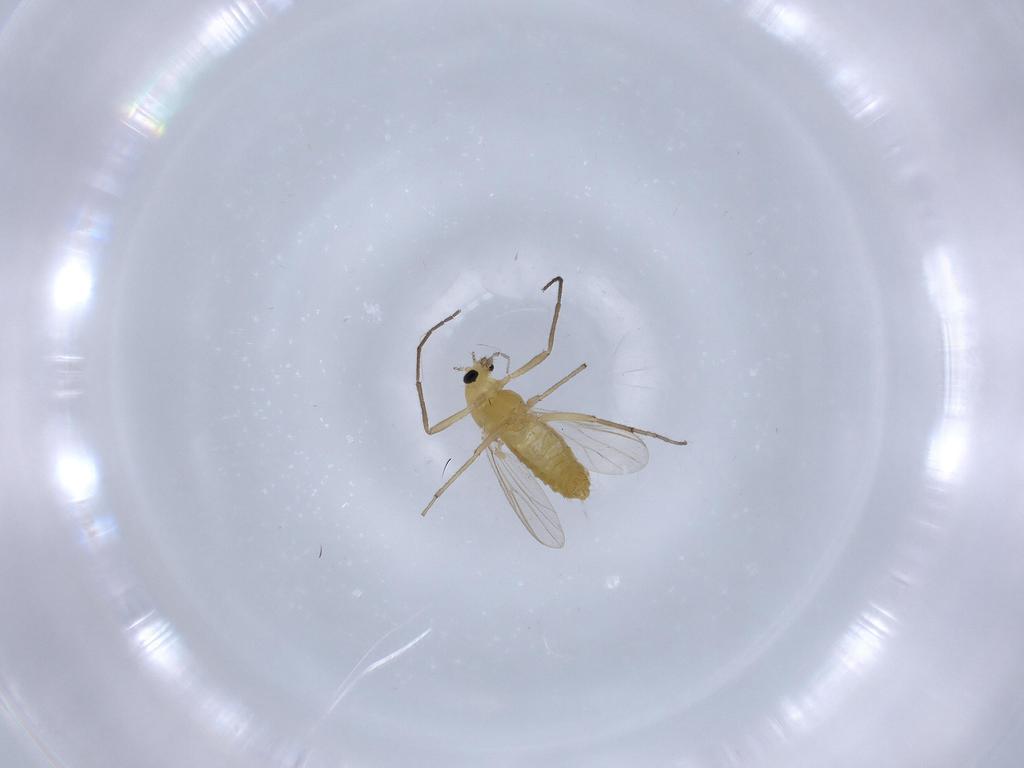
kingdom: Animalia
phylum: Arthropoda
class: Insecta
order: Diptera
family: Chironomidae
